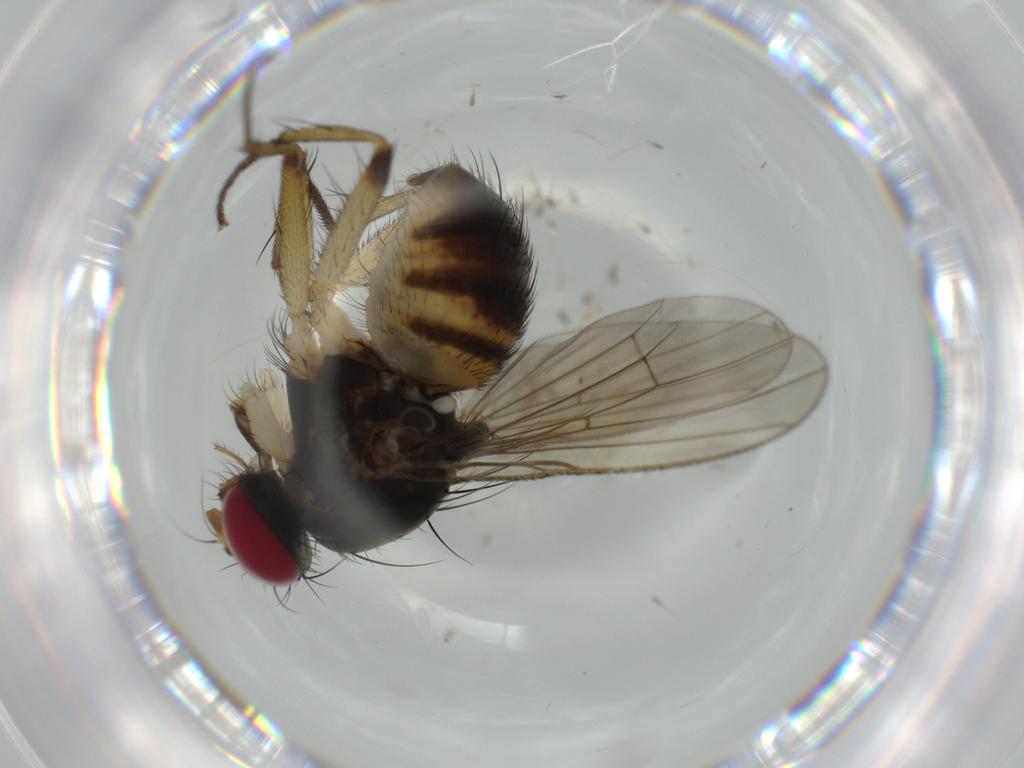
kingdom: Animalia
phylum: Arthropoda
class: Insecta
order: Diptera
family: Muscidae
